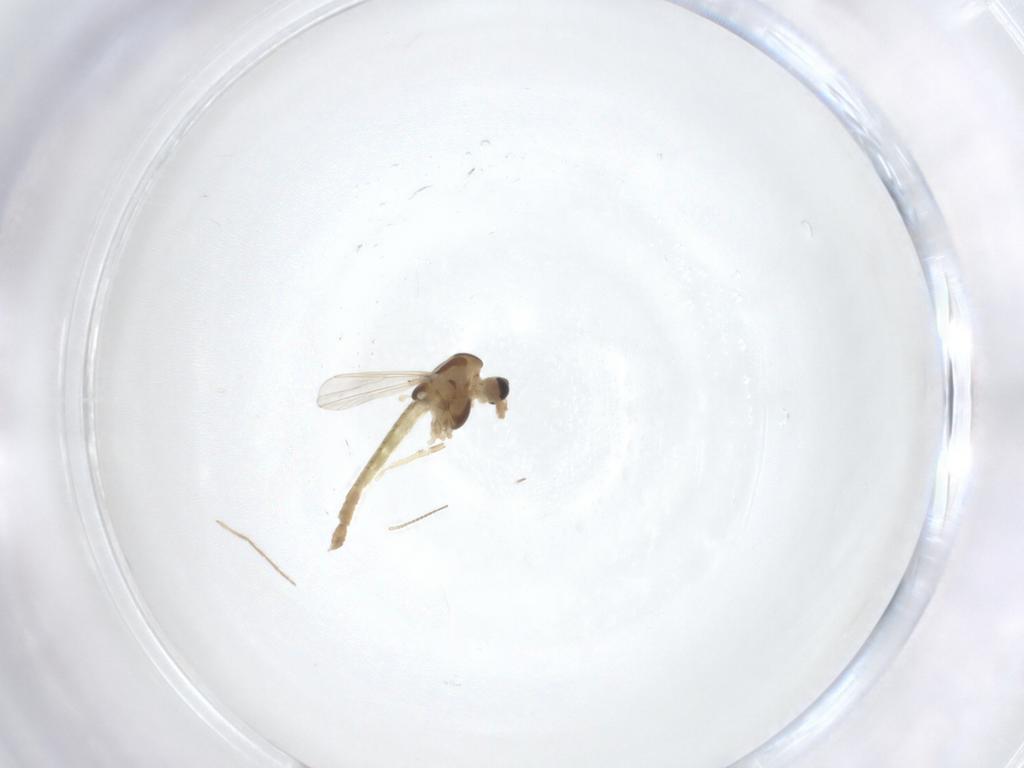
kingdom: Animalia
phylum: Arthropoda
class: Insecta
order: Diptera
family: Chironomidae
